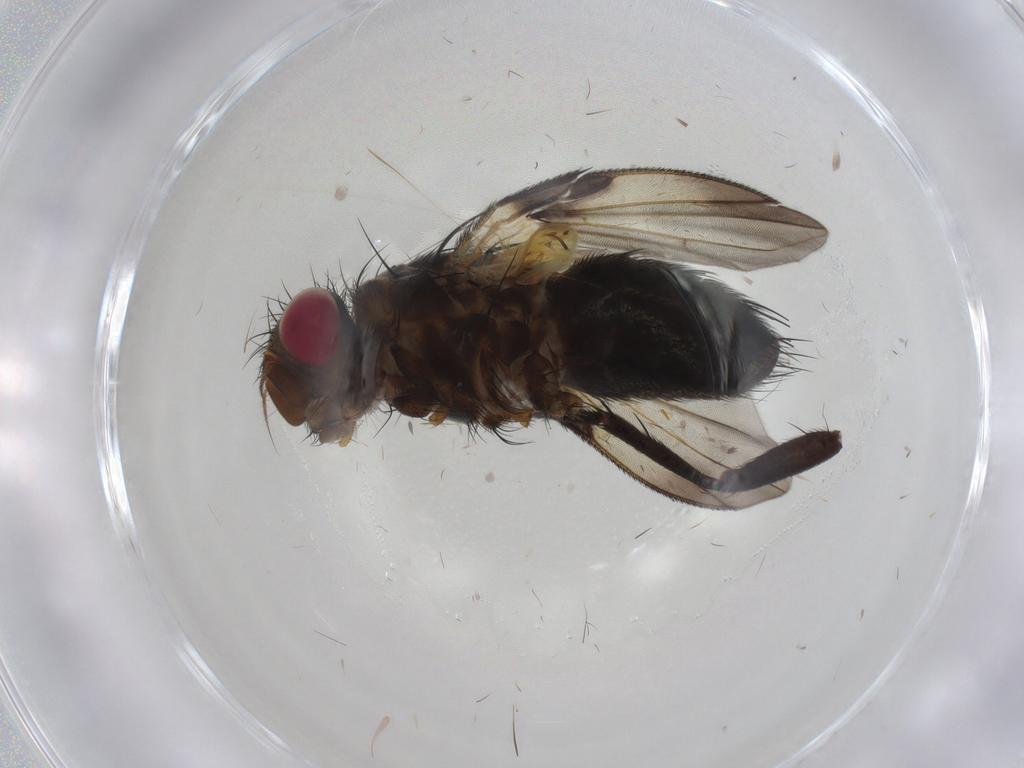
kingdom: Animalia
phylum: Arthropoda
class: Insecta
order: Diptera
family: Tachinidae
